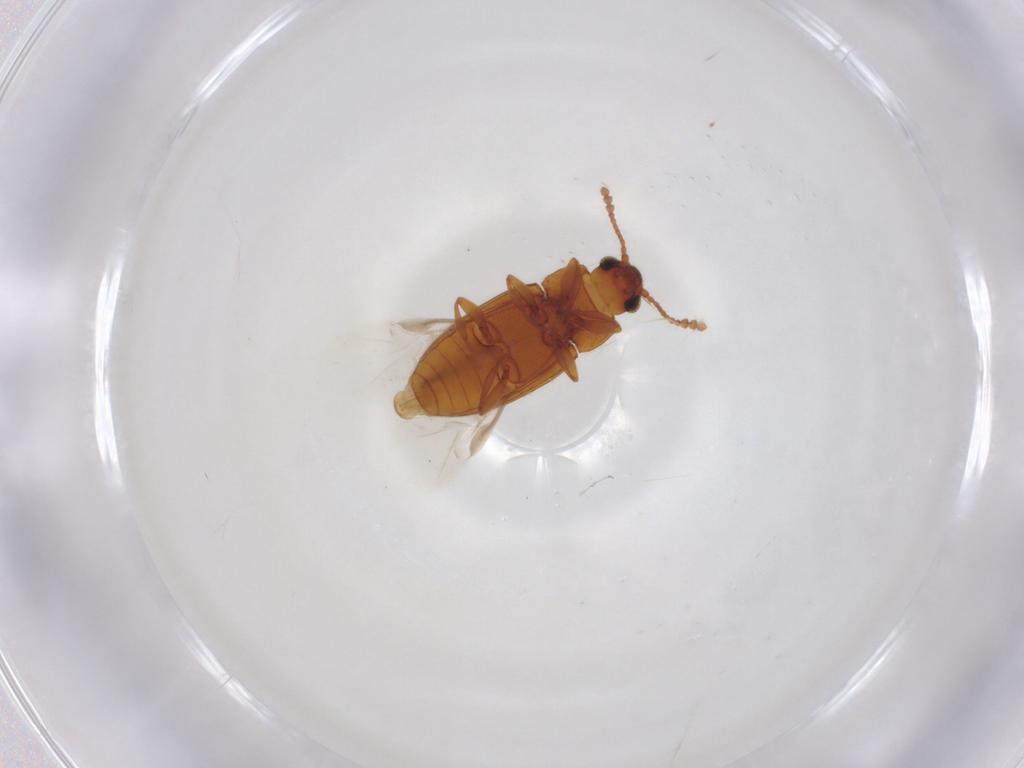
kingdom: Animalia
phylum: Arthropoda
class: Insecta
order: Coleoptera
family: Erotylidae
